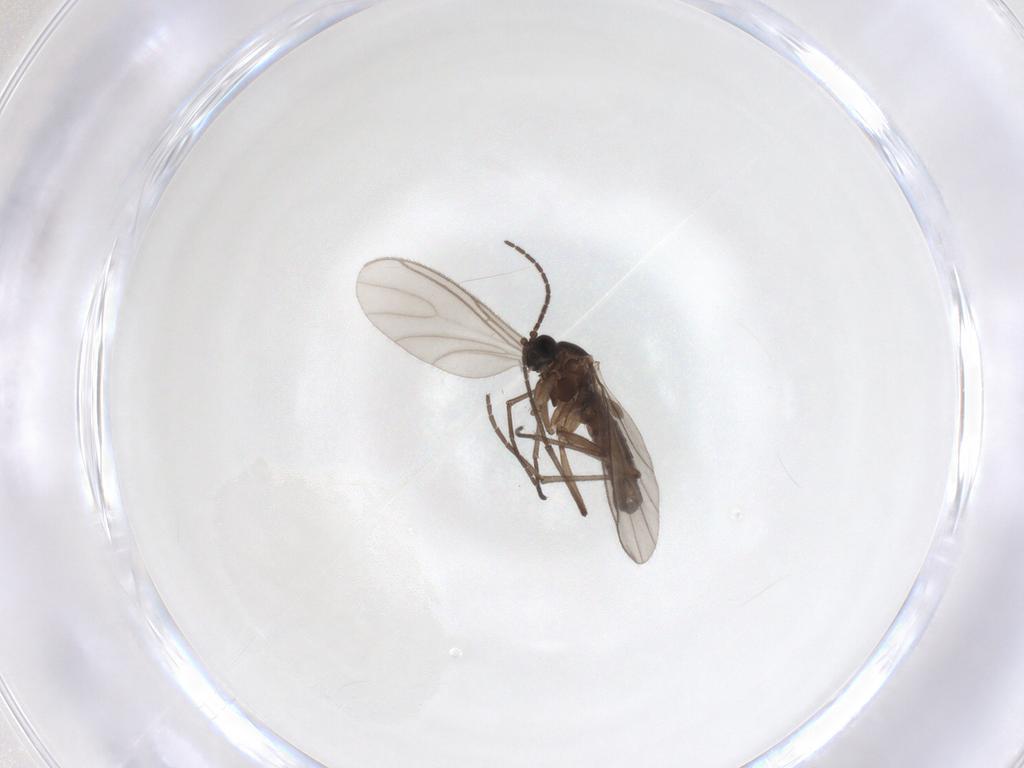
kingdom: Animalia
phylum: Arthropoda
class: Insecta
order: Diptera
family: Sciaridae
